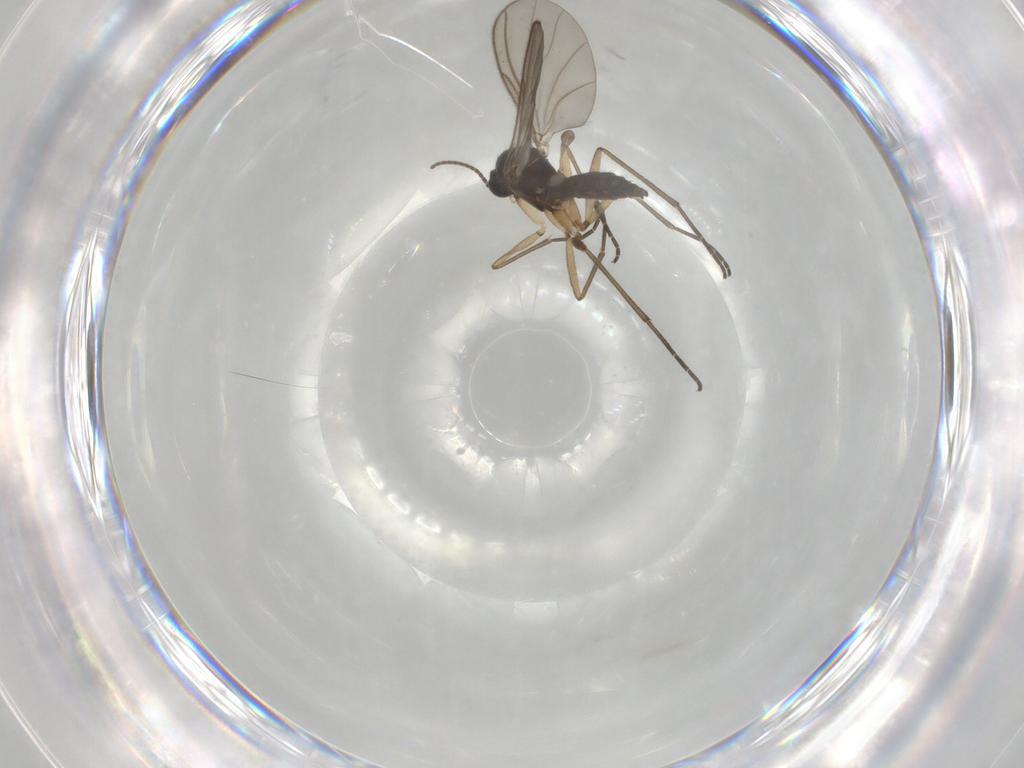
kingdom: Animalia
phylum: Arthropoda
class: Insecta
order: Diptera
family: Sciaridae
